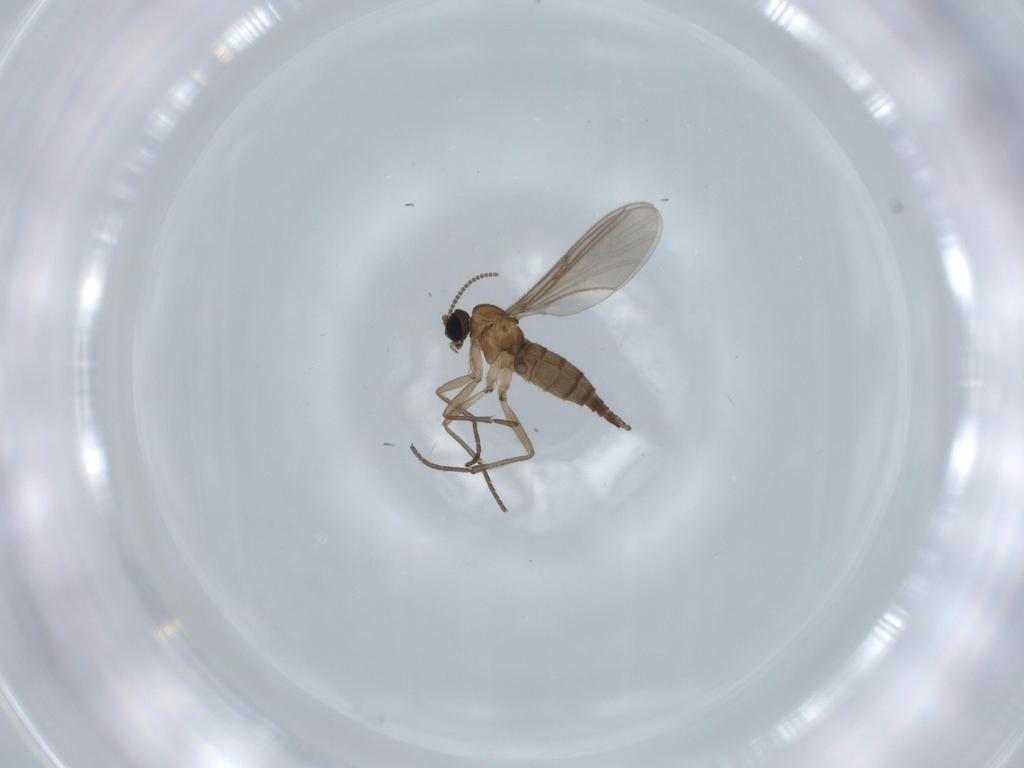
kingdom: Animalia
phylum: Arthropoda
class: Insecta
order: Diptera
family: Sciaridae
